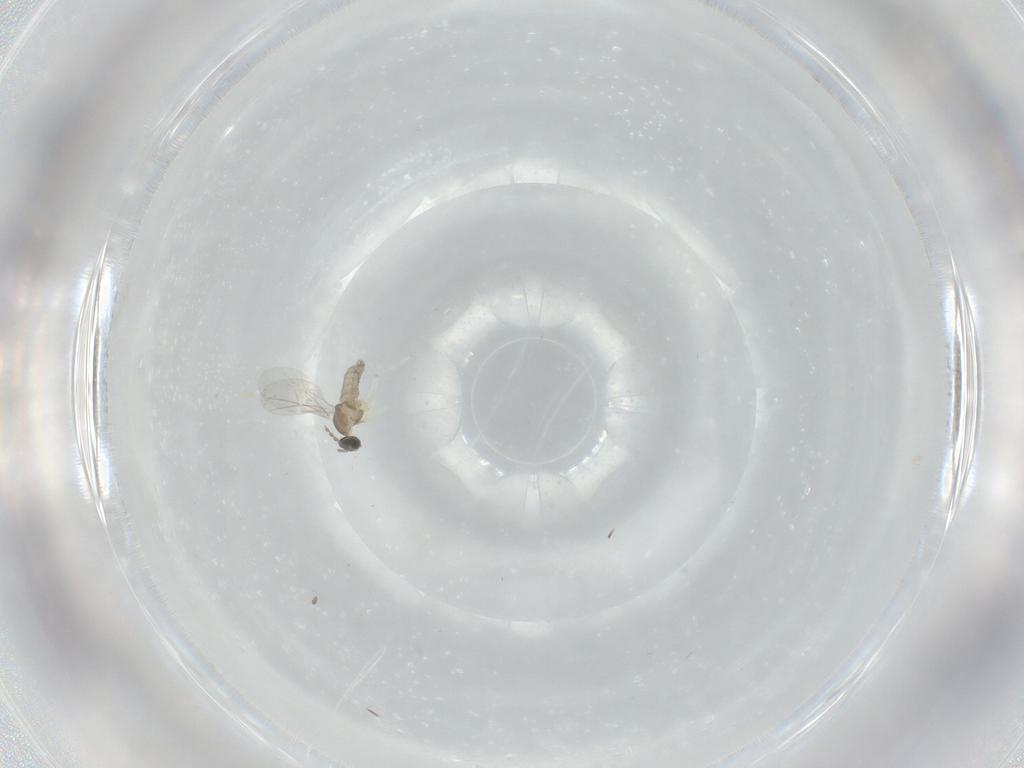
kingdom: Animalia
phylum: Arthropoda
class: Insecta
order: Diptera
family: Cecidomyiidae
